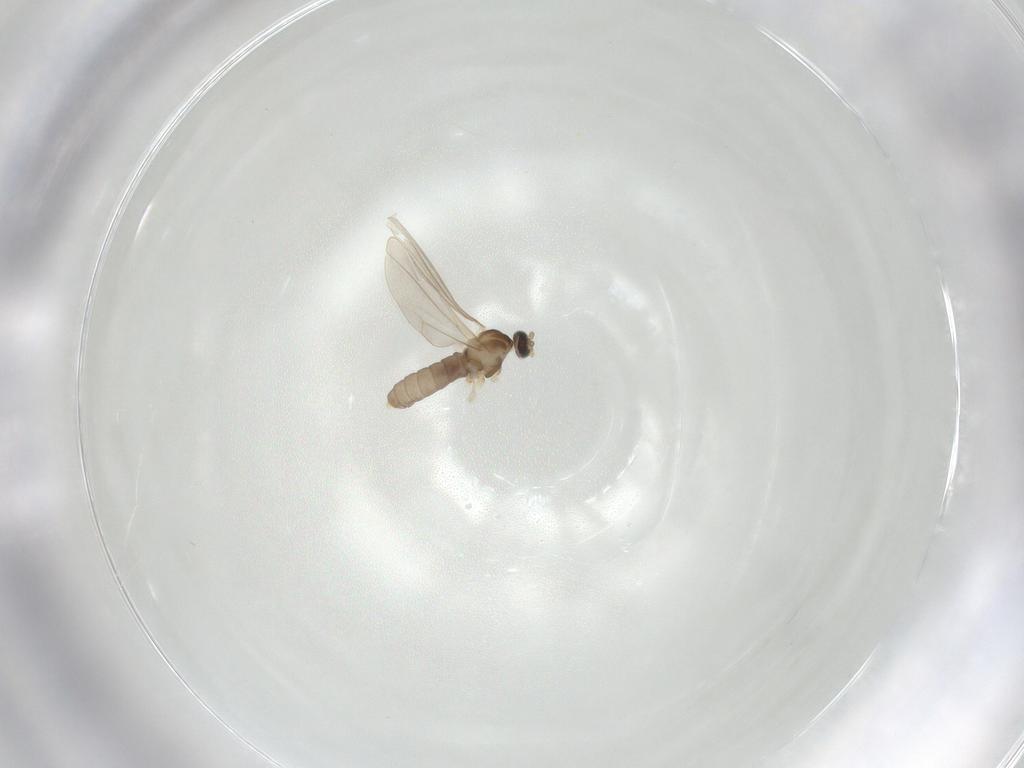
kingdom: Animalia
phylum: Arthropoda
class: Insecta
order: Diptera
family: Cecidomyiidae
